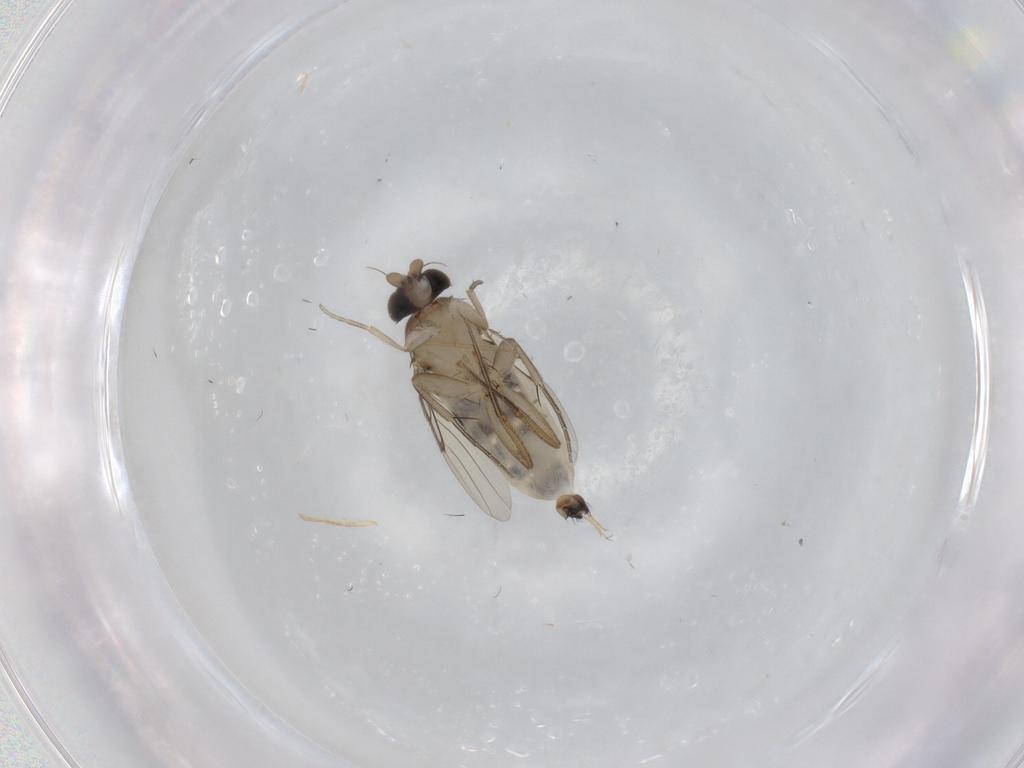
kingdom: Animalia
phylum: Arthropoda
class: Insecta
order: Diptera
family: Phoridae
